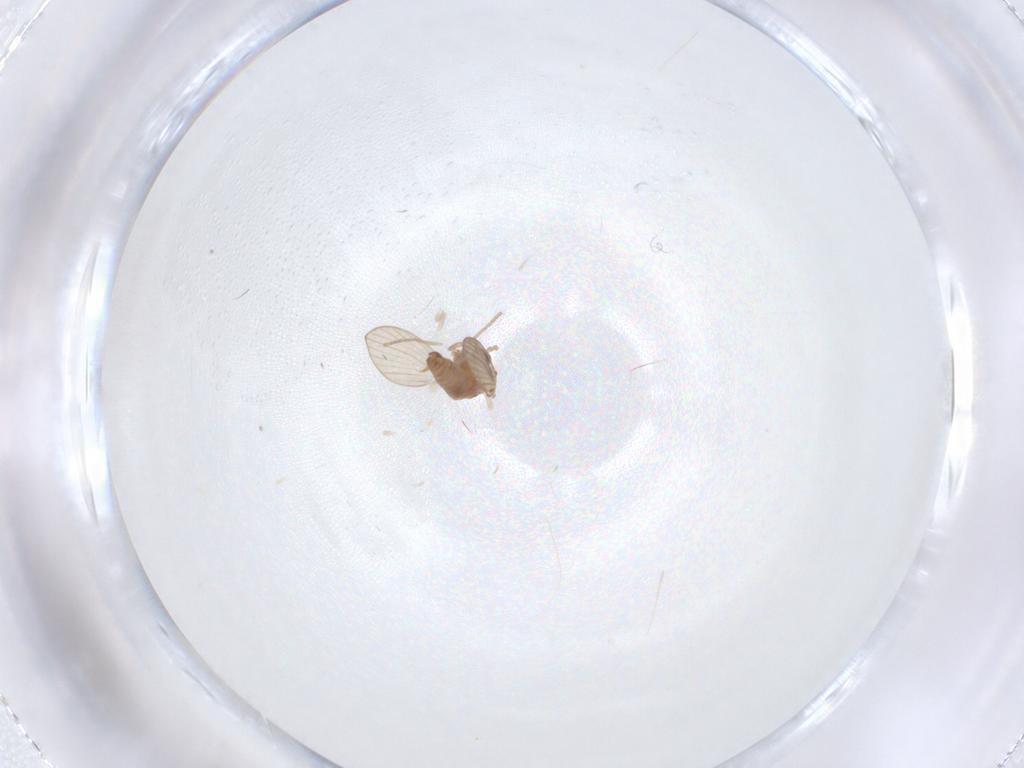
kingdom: Animalia
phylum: Arthropoda
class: Insecta
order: Diptera
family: Psychodidae
